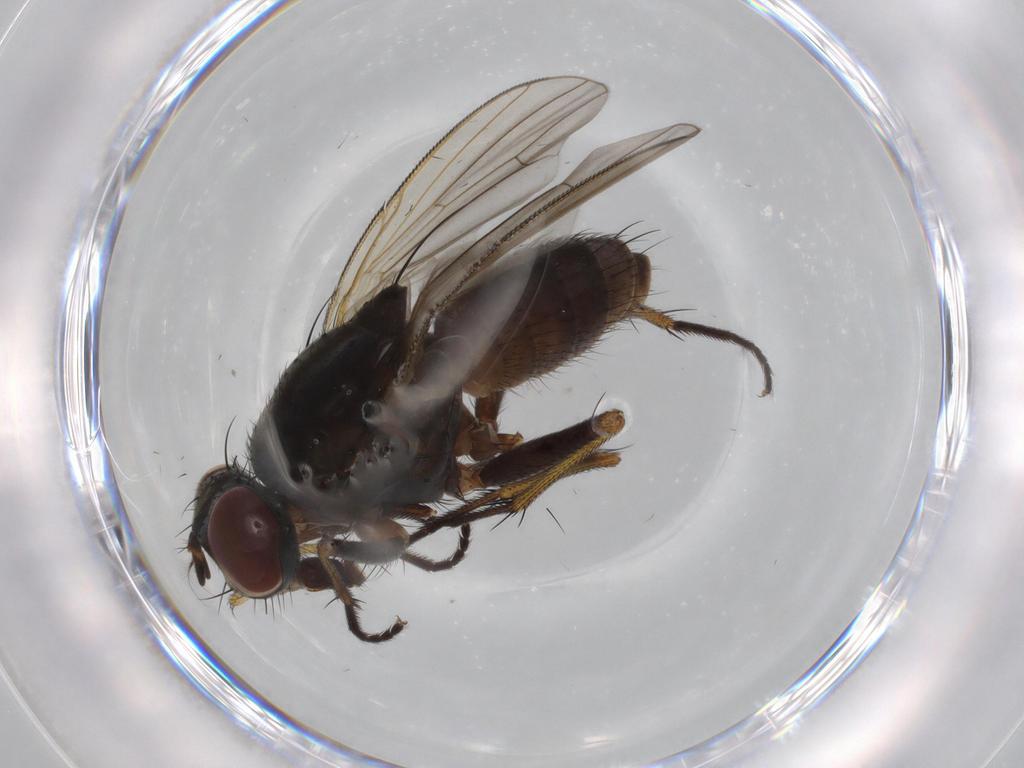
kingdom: Animalia
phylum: Arthropoda
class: Insecta
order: Diptera
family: Muscidae
